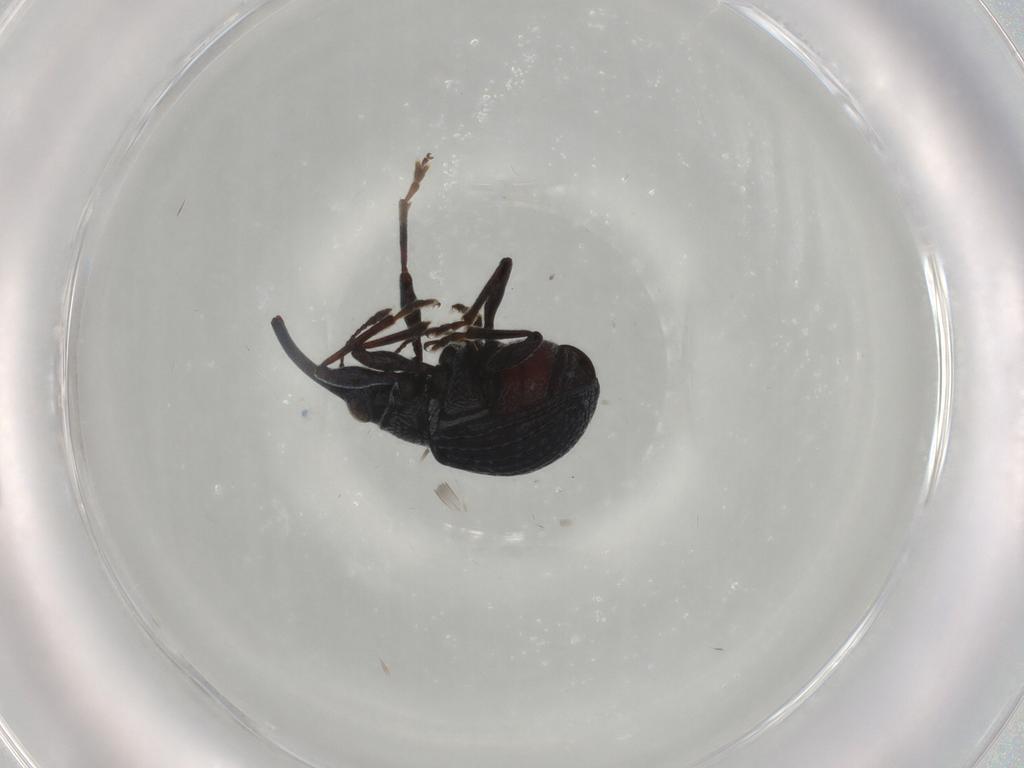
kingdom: Animalia
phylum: Arthropoda
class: Insecta
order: Coleoptera
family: Brentidae
